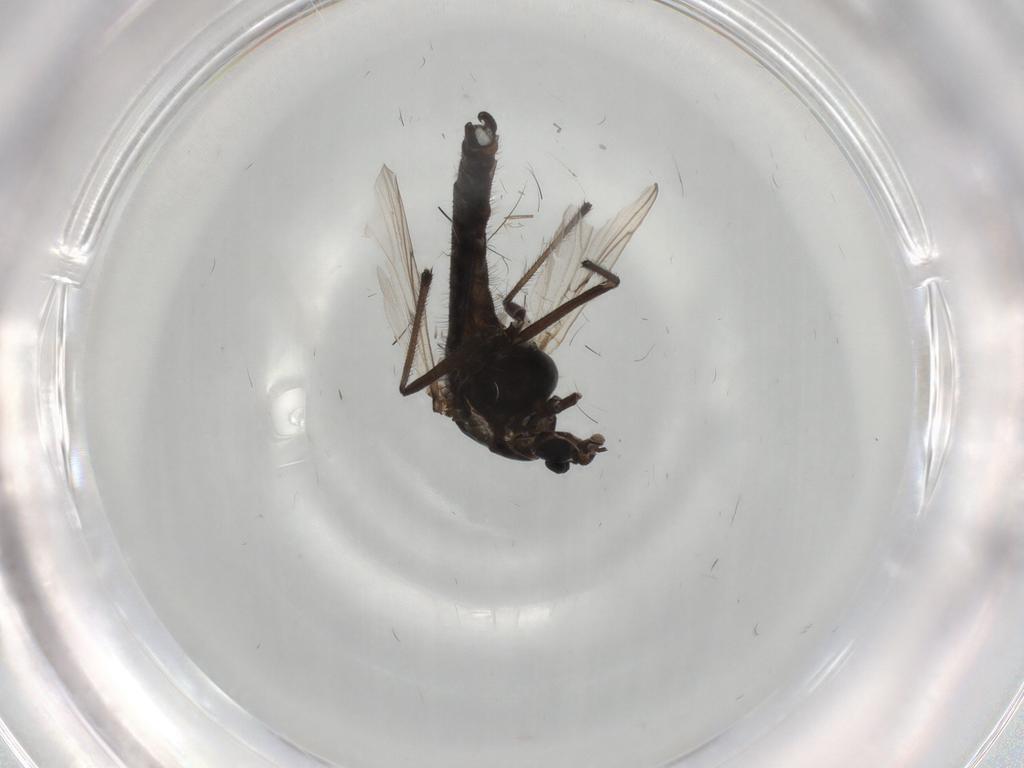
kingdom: Animalia
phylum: Arthropoda
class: Insecta
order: Diptera
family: Chironomidae
